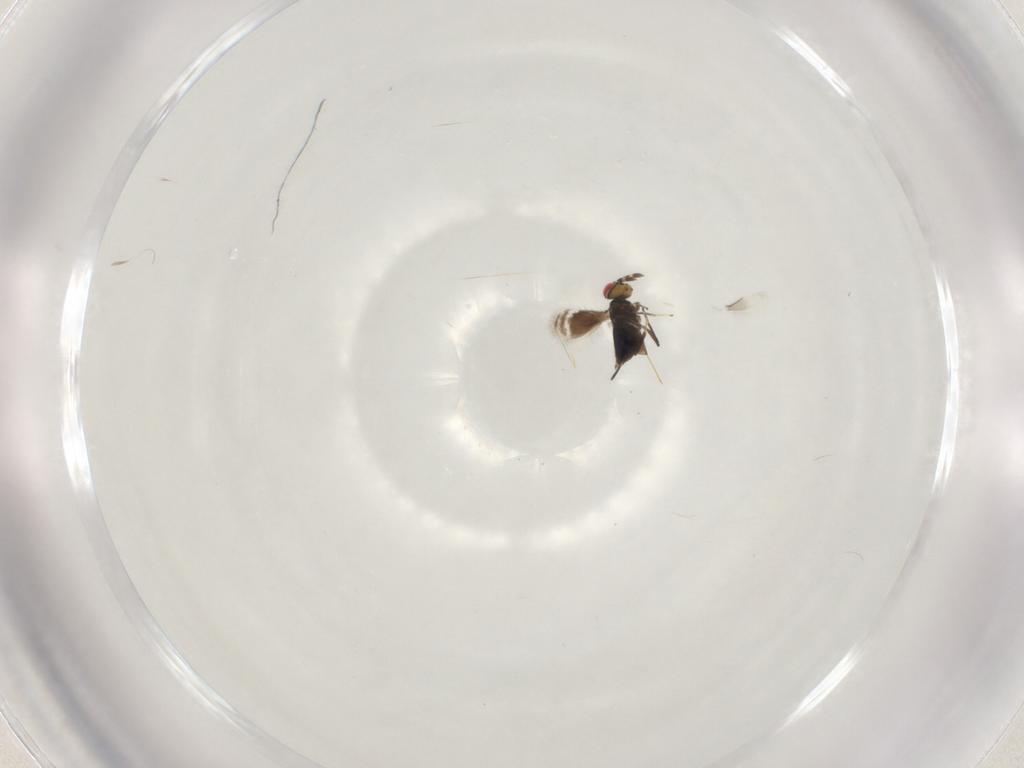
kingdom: Animalia
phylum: Arthropoda
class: Insecta
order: Hymenoptera
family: Azotidae
